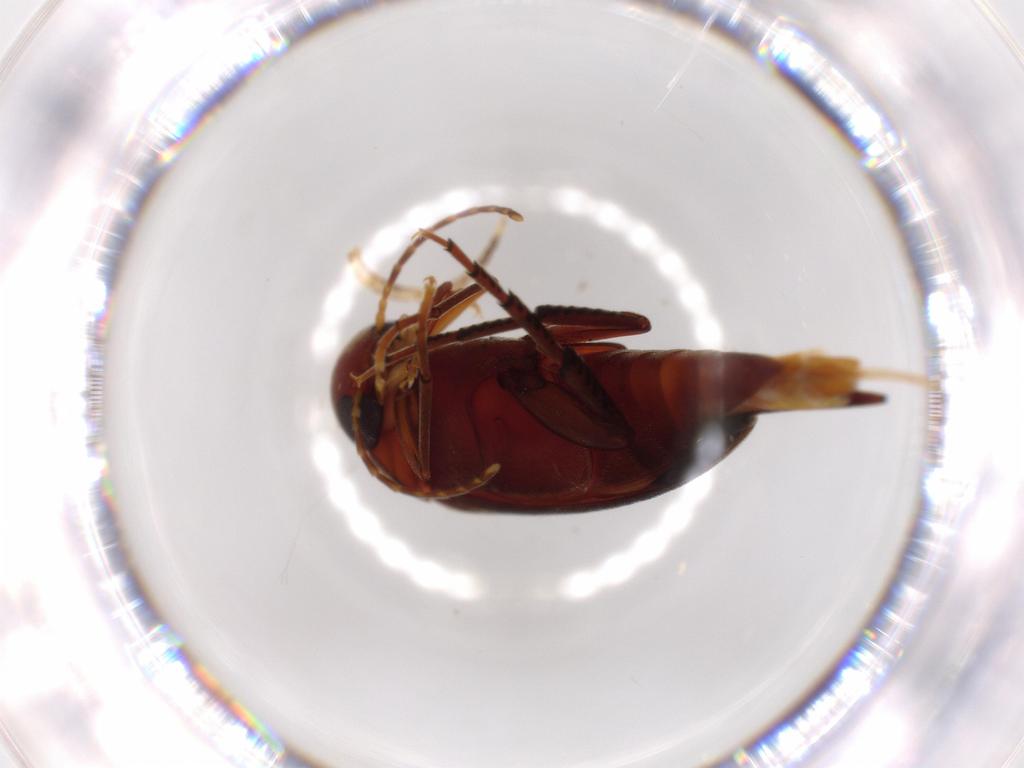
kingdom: Animalia
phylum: Arthropoda
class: Insecta
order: Coleoptera
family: Mordellidae
